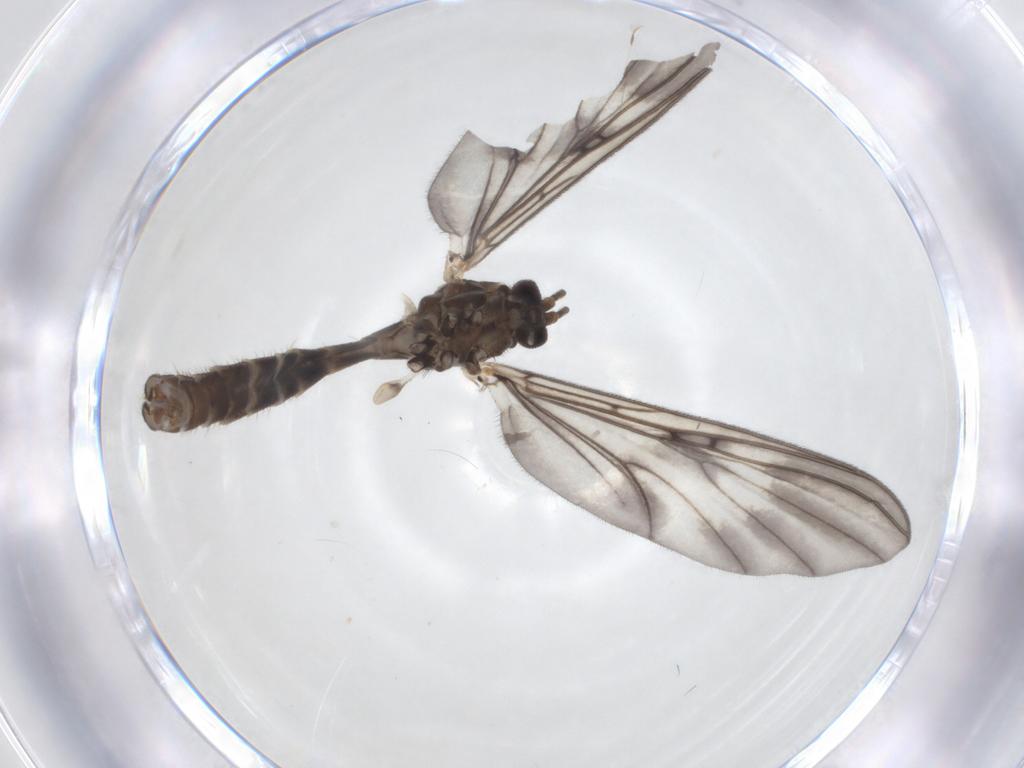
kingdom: Animalia
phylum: Arthropoda
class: Insecta
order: Diptera
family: Mycetophilidae
